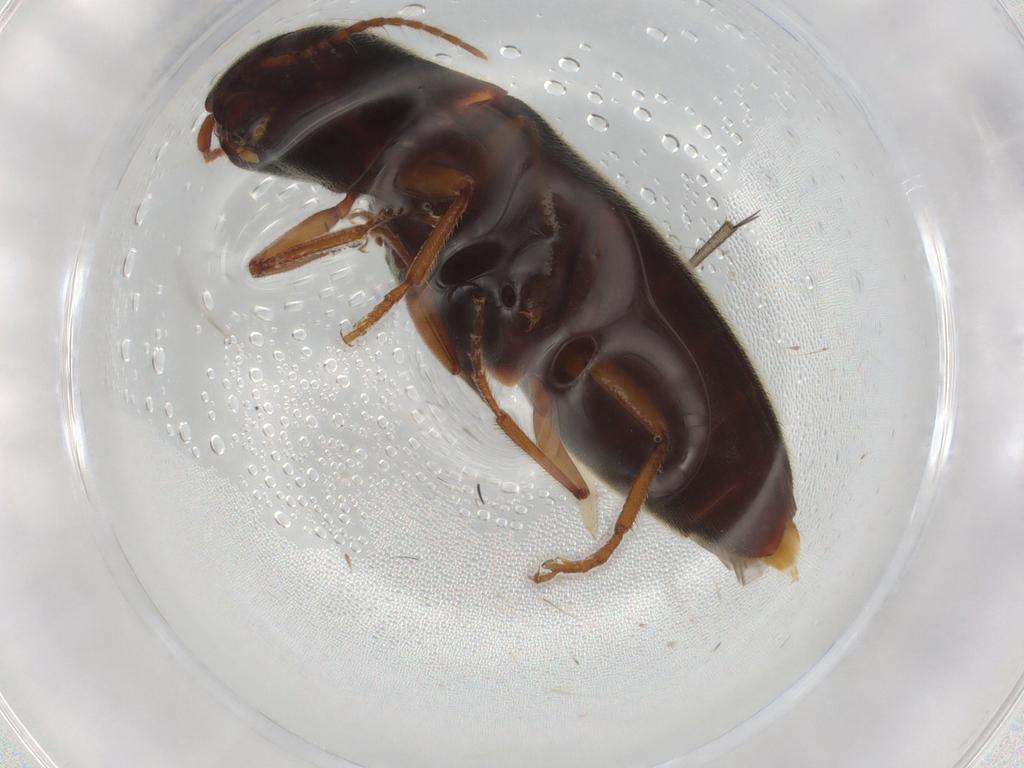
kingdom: Animalia
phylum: Arthropoda
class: Insecta
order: Coleoptera
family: Elateridae
